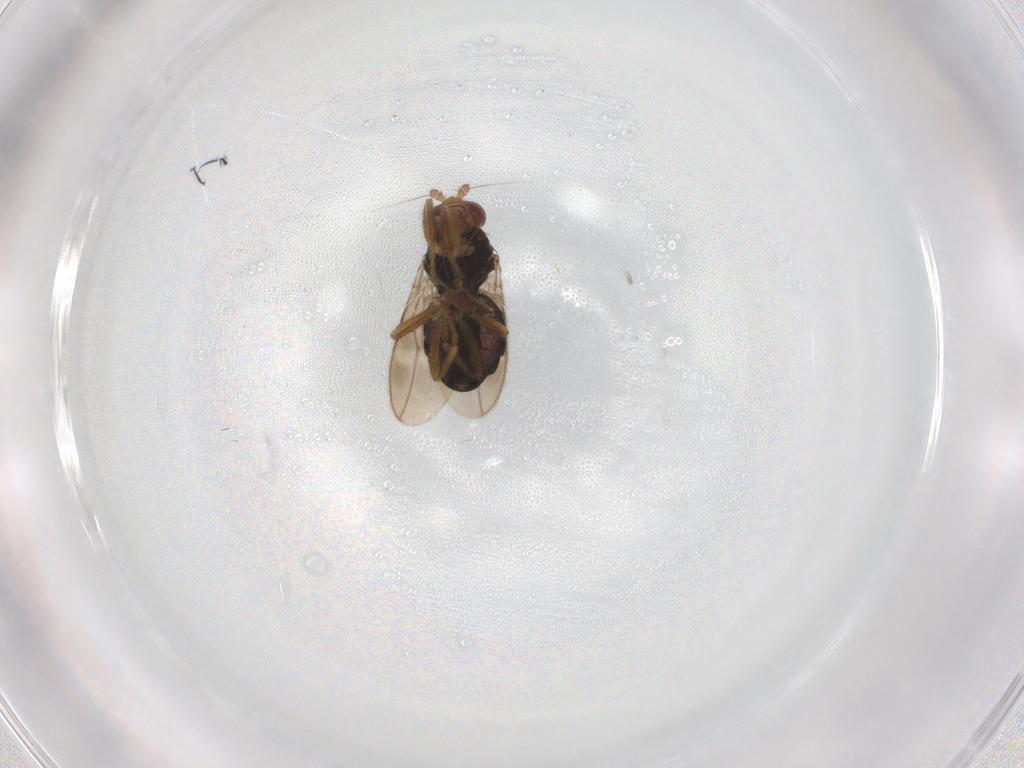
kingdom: Animalia
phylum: Arthropoda
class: Insecta
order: Diptera
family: Sphaeroceridae
